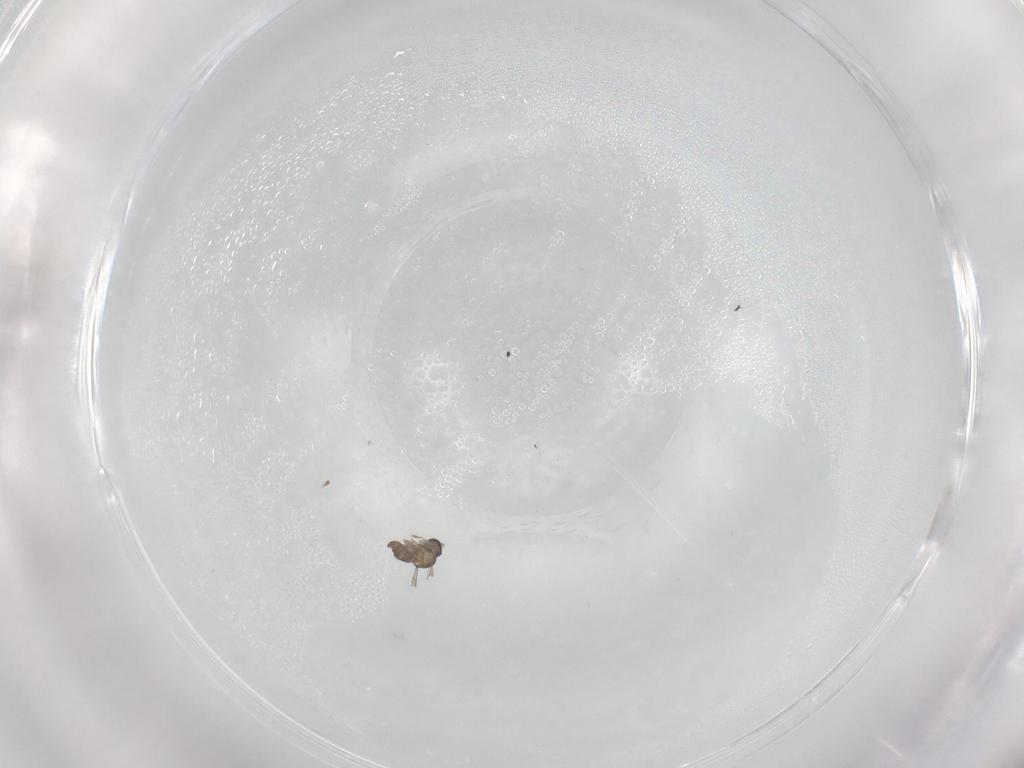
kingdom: Animalia
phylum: Arthropoda
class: Insecta
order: Diptera
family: Cecidomyiidae
